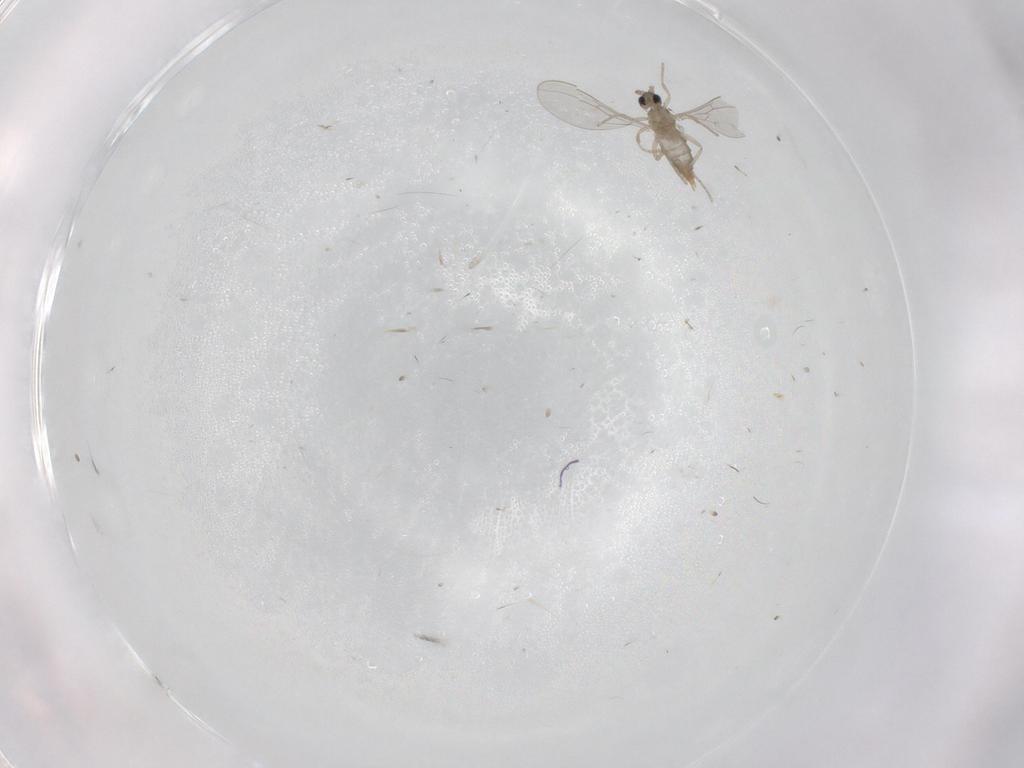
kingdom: Animalia
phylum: Arthropoda
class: Insecta
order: Diptera
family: Cecidomyiidae
